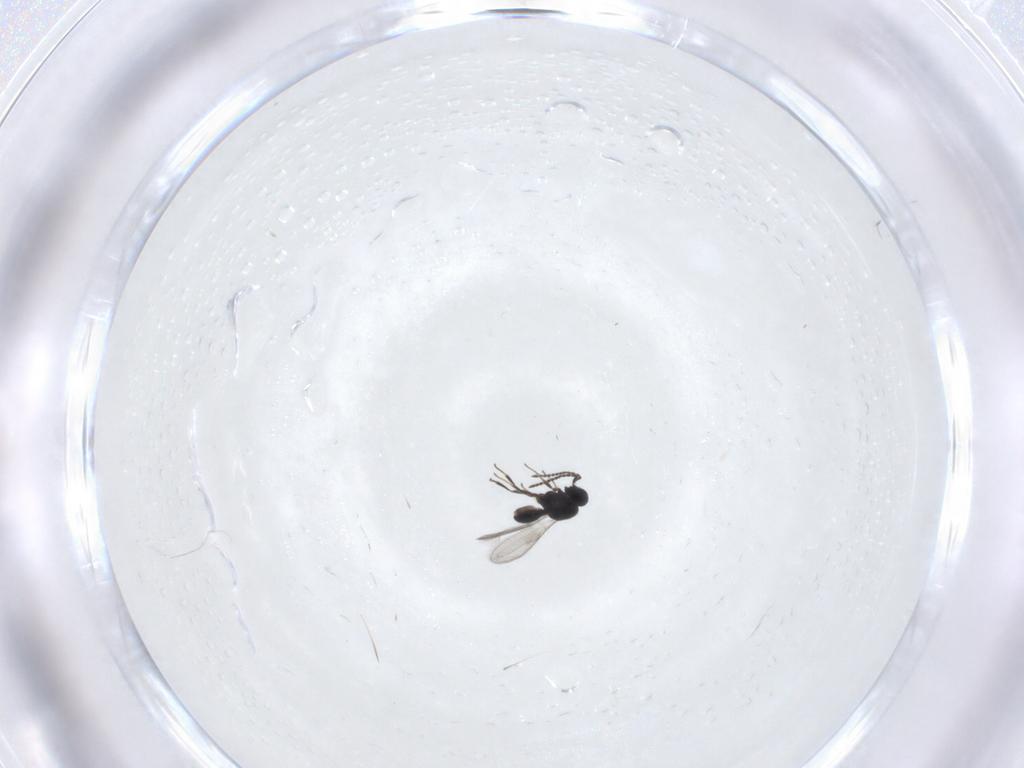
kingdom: Animalia
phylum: Arthropoda
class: Insecta
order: Hymenoptera
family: Scelionidae
